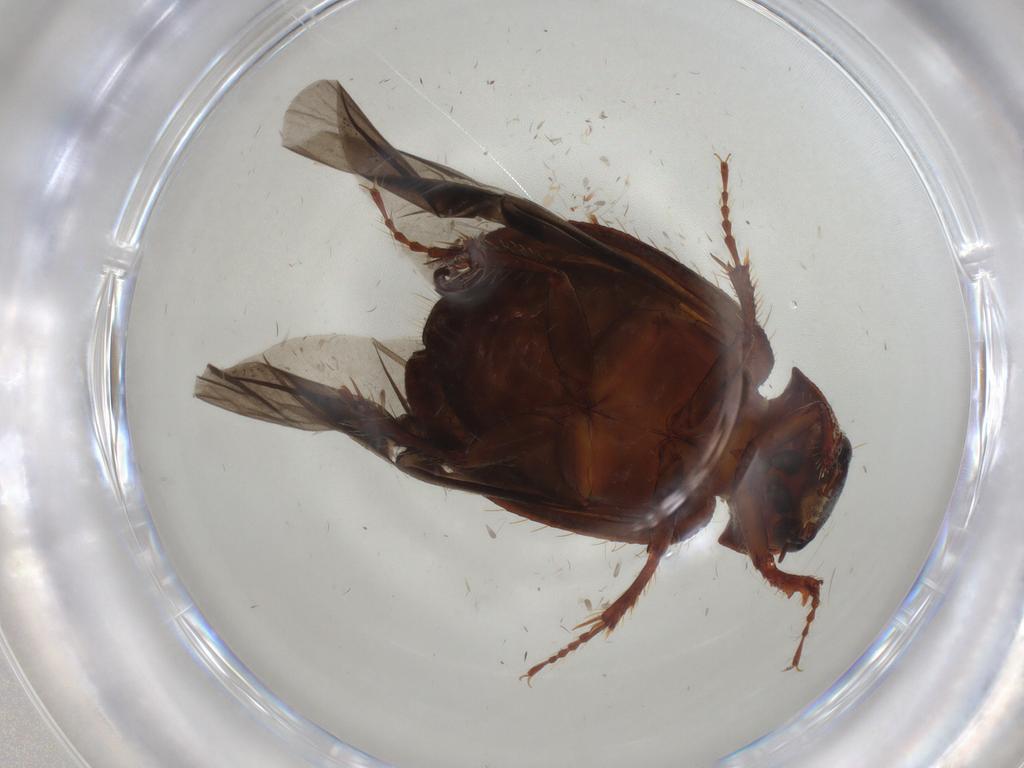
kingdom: Animalia
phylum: Arthropoda
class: Insecta
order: Coleoptera
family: Hybosoridae
